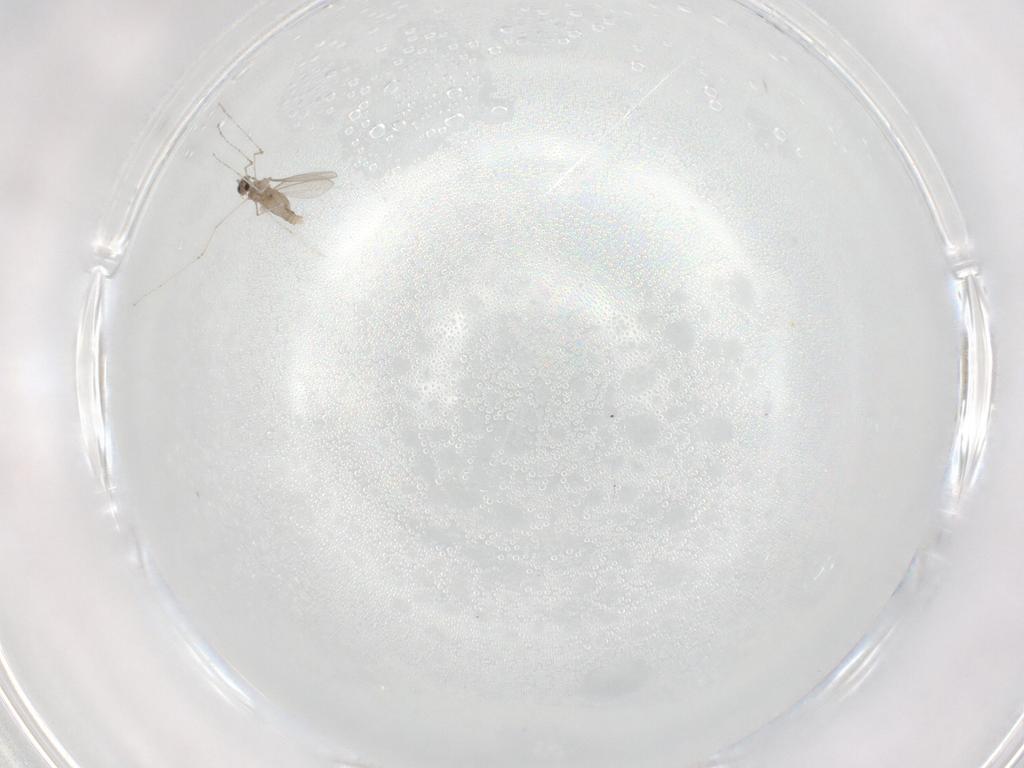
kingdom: Animalia
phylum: Arthropoda
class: Insecta
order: Diptera
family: Cecidomyiidae
